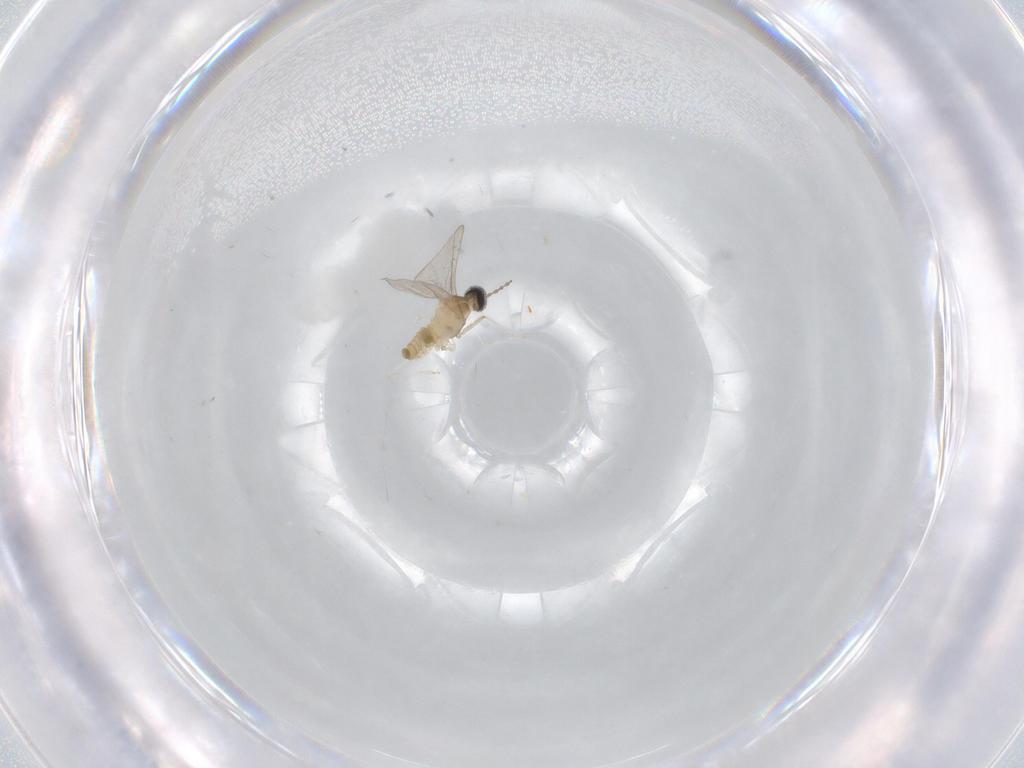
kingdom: Animalia
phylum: Arthropoda
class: Insecta
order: Diptera
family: Cecidomyiidae
